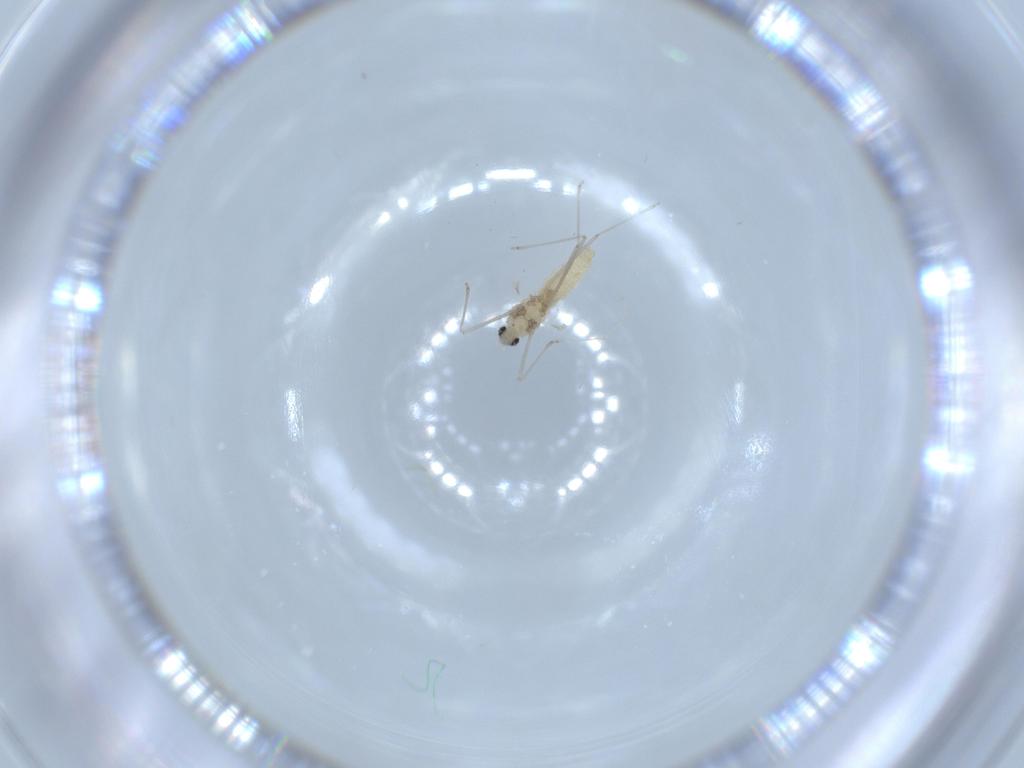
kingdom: Animalia
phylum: Arthropoda
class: Insecta
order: Diptera
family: Cecidomyiidae
